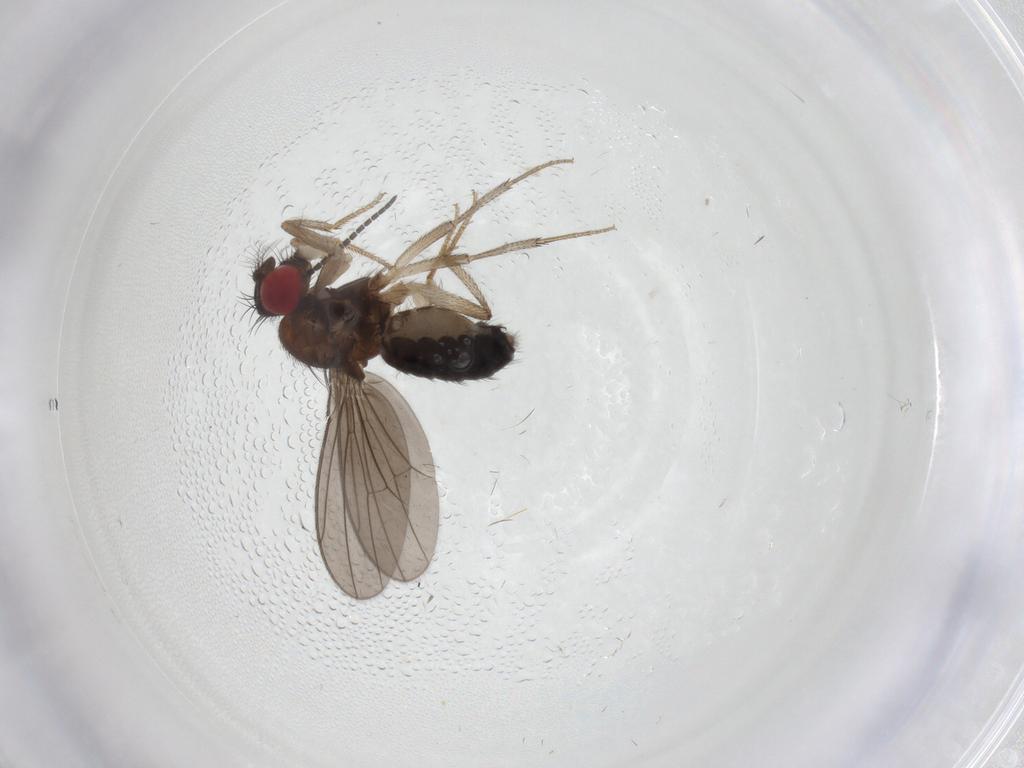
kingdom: Animalia
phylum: Arthropoda
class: Insecta
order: Diptera
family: Drosophilidae
